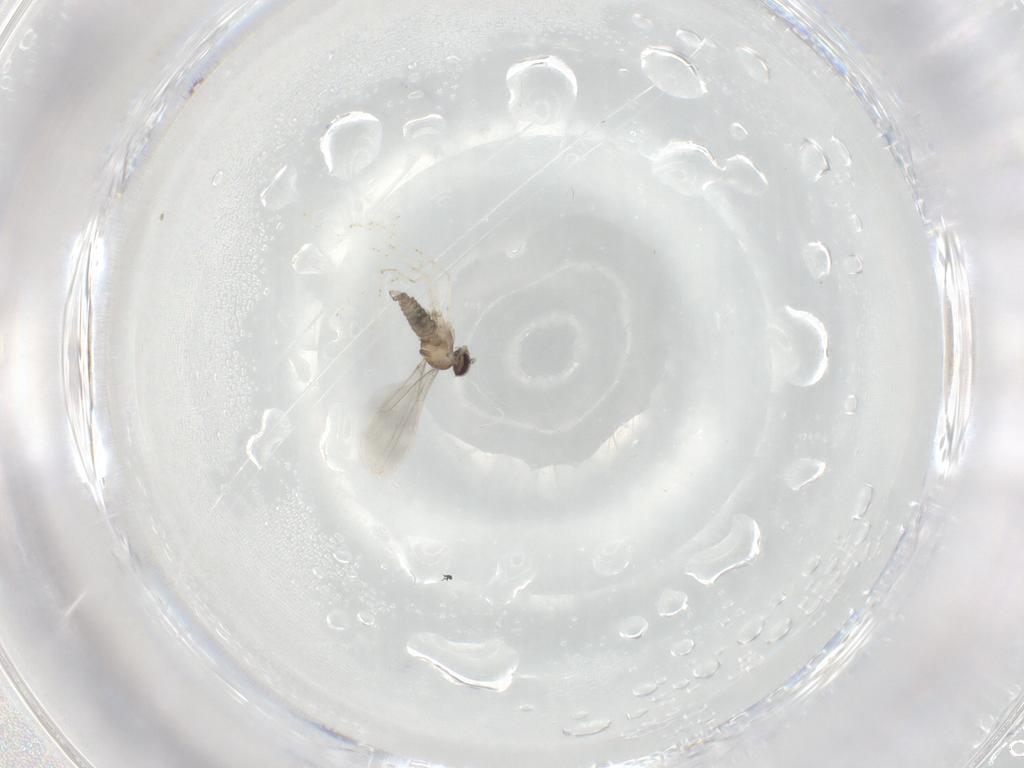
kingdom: Animalia
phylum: Arthropoda
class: Insecta
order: Diptera
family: Cecidomyiidae
